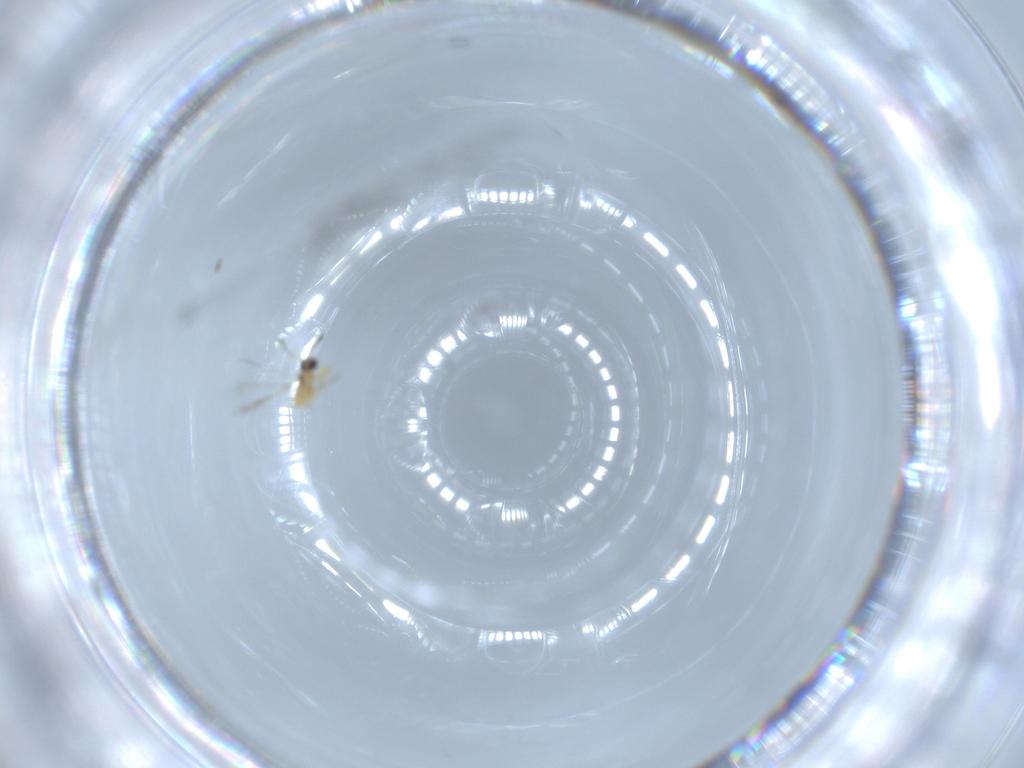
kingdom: Animalia
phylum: Arthropoda
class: Insecta
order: Hymenoptera
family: Mymaridae
